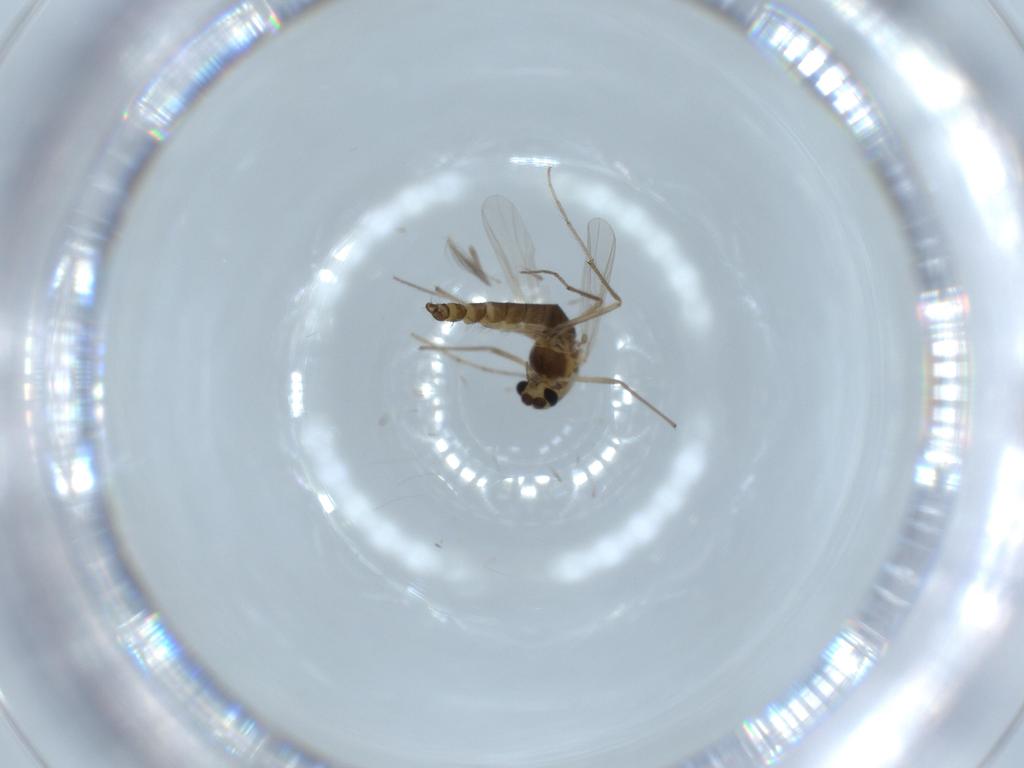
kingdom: Animalia
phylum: Arthropoda
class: Insecta
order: Diptera
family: Chironomidae
